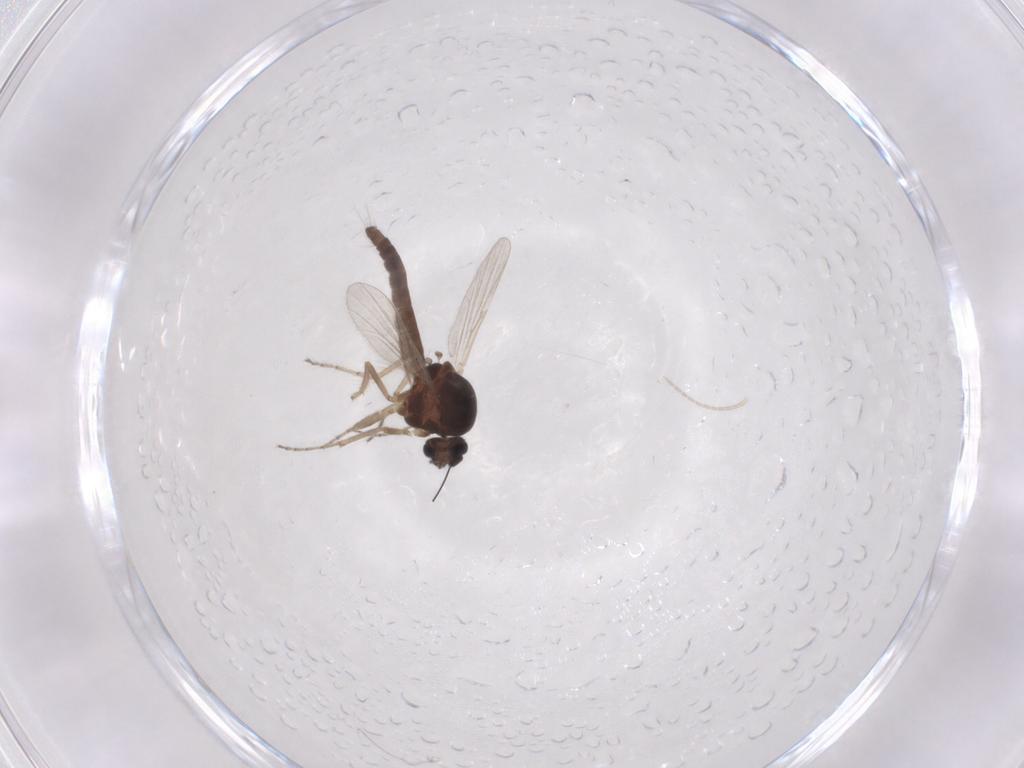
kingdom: Animalia
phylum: Arthropoda
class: Insecta
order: Diptera
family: Ceratopogonidae
